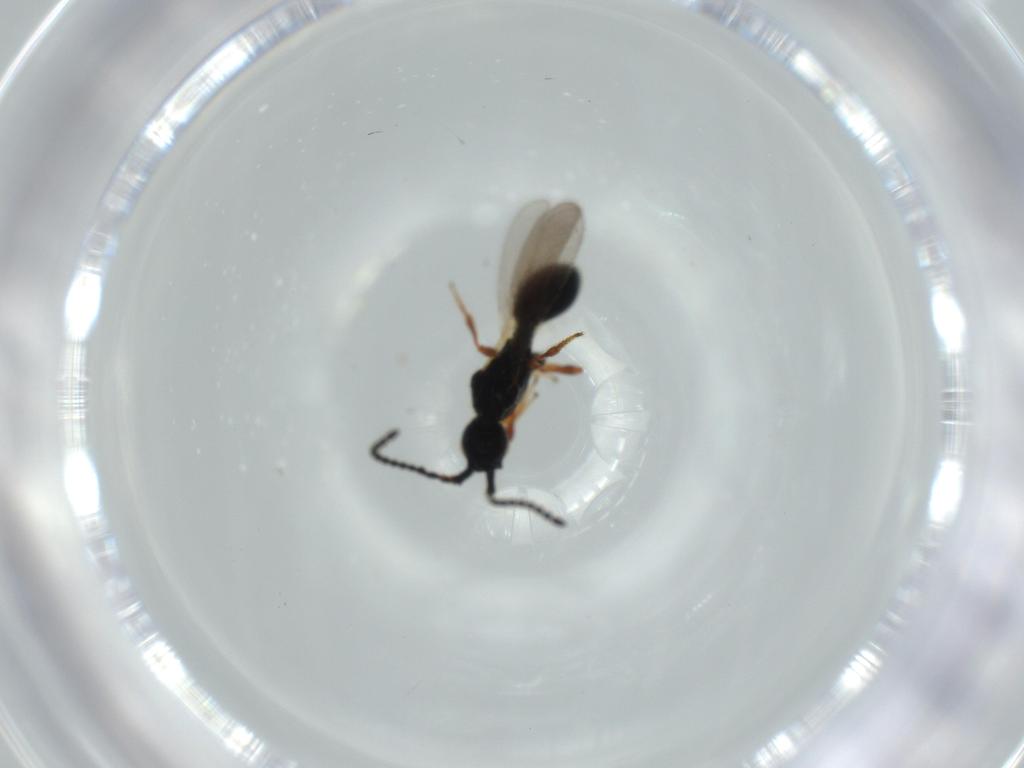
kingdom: Animalia
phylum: Arthropoda
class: Insecta
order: Hymenoptera
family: Diapriidae
